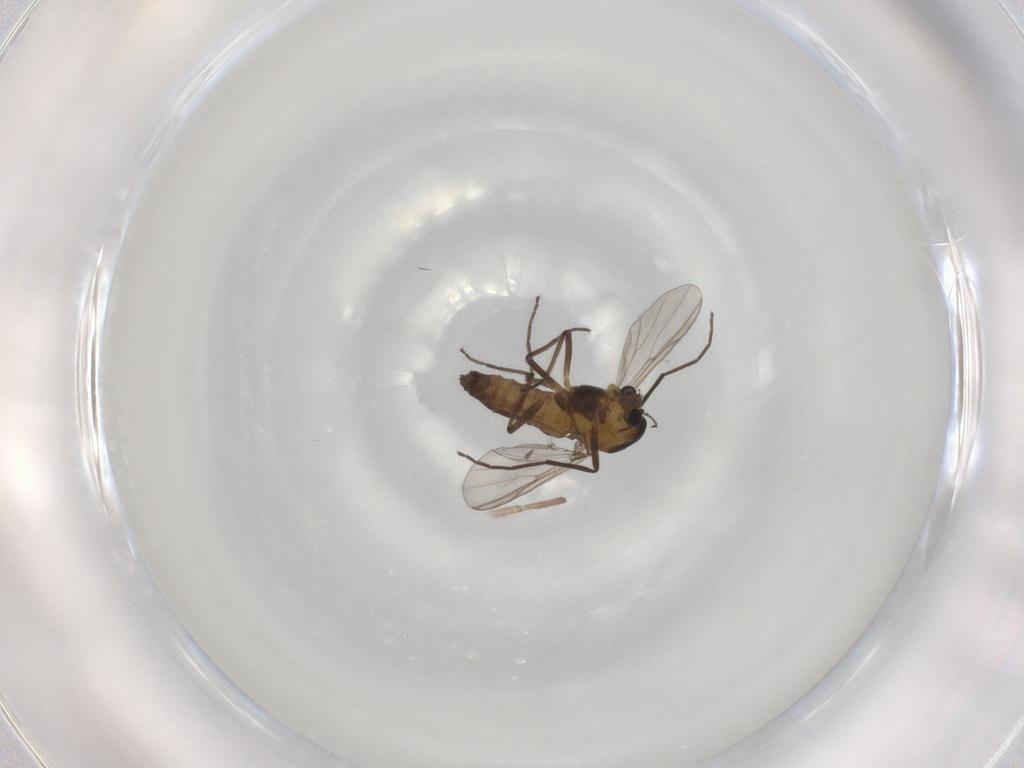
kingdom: Animalia
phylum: Arthropoda
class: Insecta
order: Diptera
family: Chironomidae
